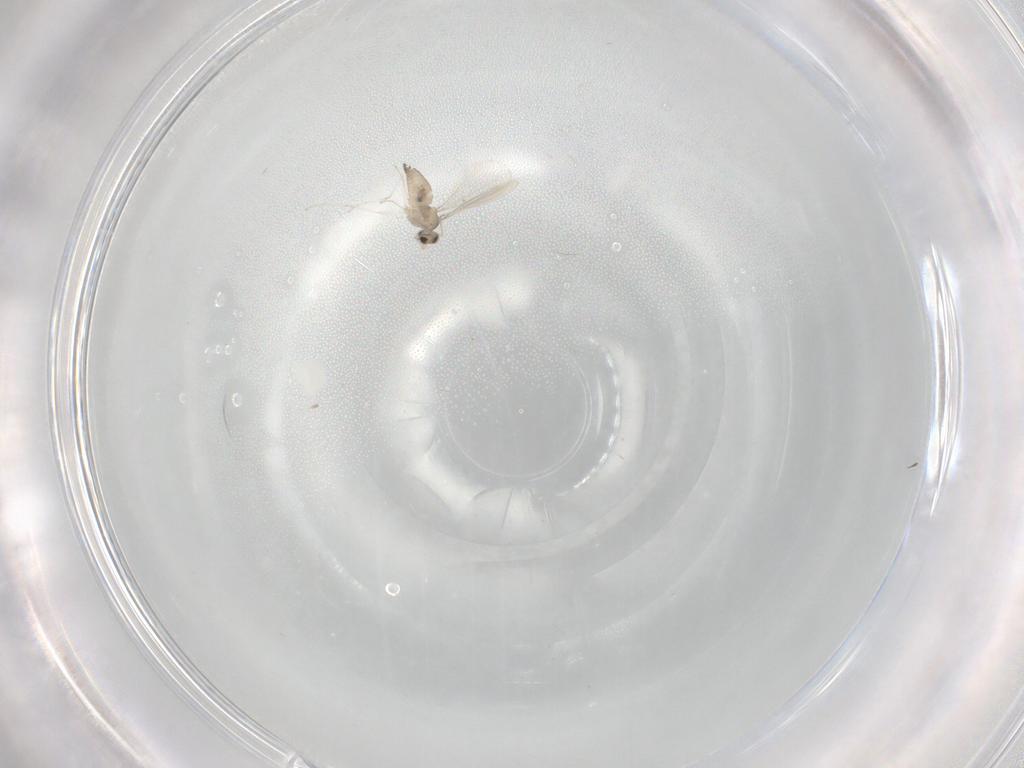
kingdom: Animalia
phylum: Arthropoda
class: Insecta
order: Diptera
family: Cecidomyiidae
